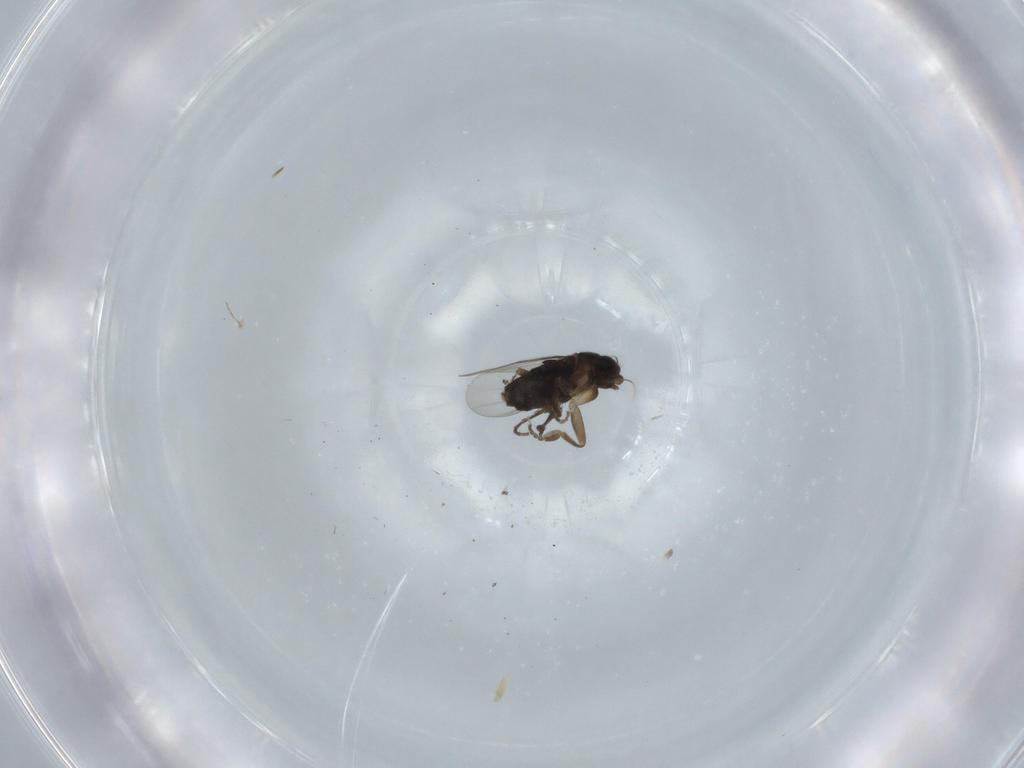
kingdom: Animalia
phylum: Arthropoda
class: Insecta
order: Diptera
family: Phoridae
